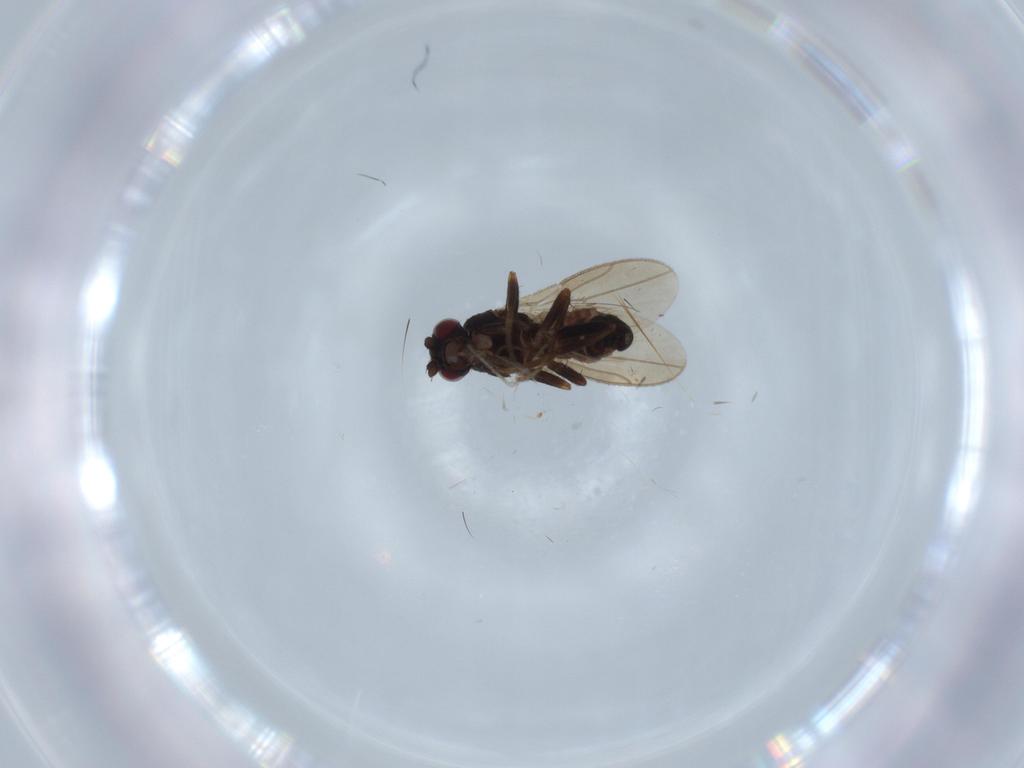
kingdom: Animalia
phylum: Arthropoda
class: Insecta
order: Diptera
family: Sphaeroceridae
